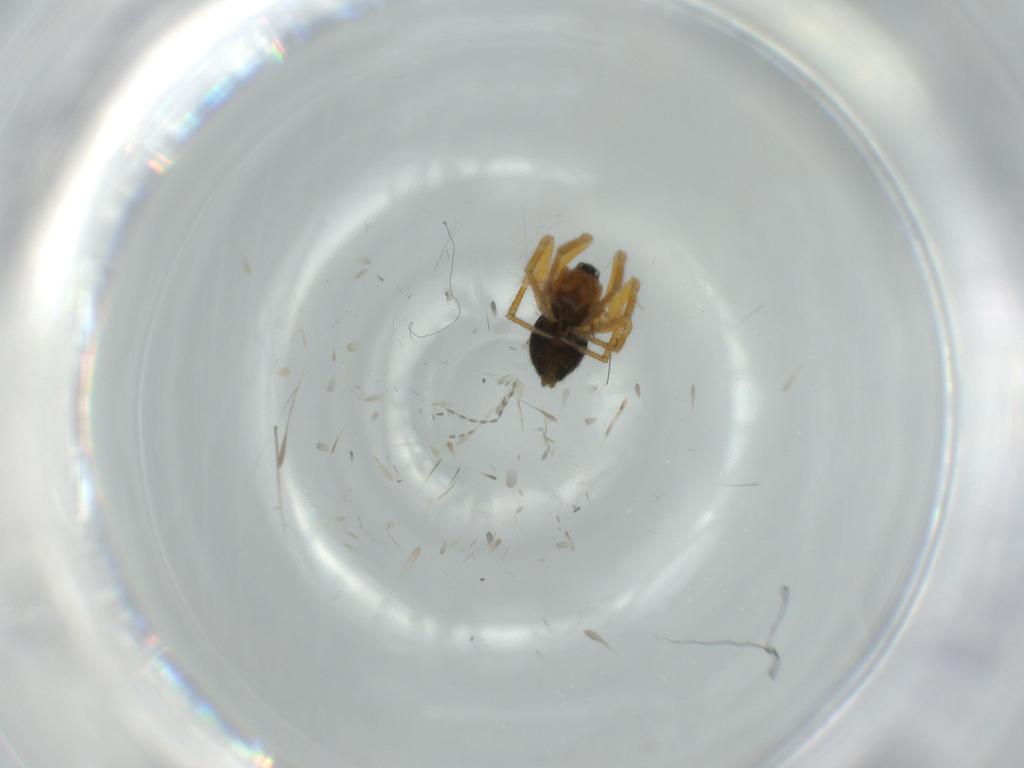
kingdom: Animalia
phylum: Arthropoda
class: Arachnida
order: Araneae
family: Linyphiidae
